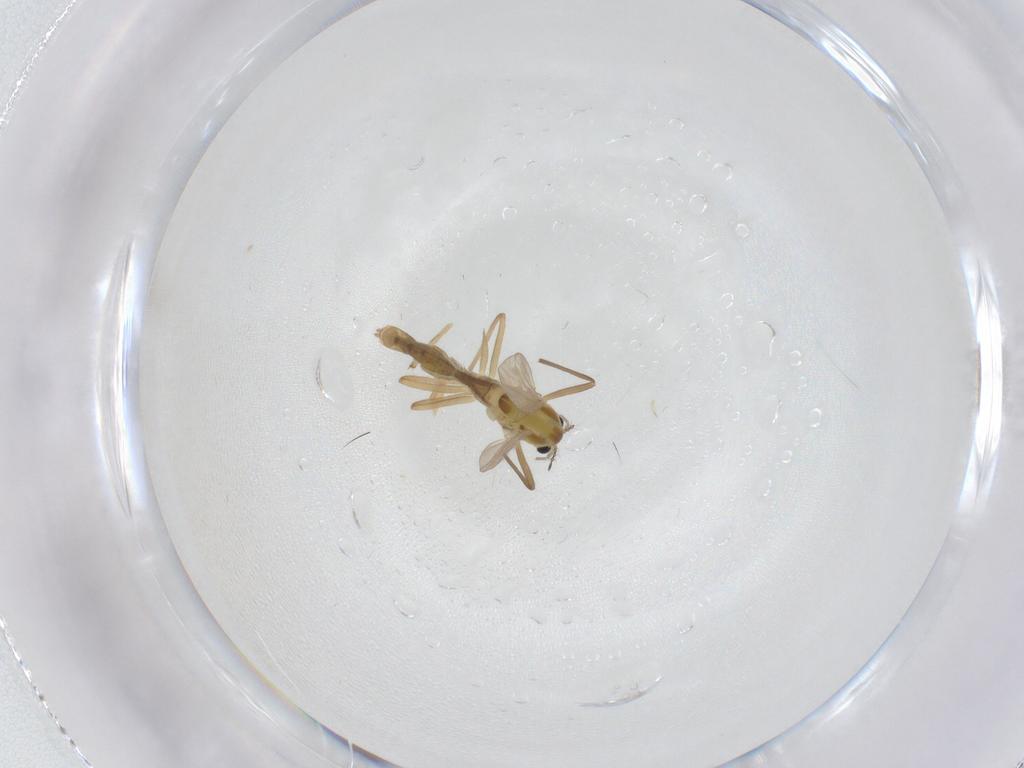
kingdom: Animalia
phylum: Arthropoda
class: Insecta
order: Diptera
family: Chironomidae
